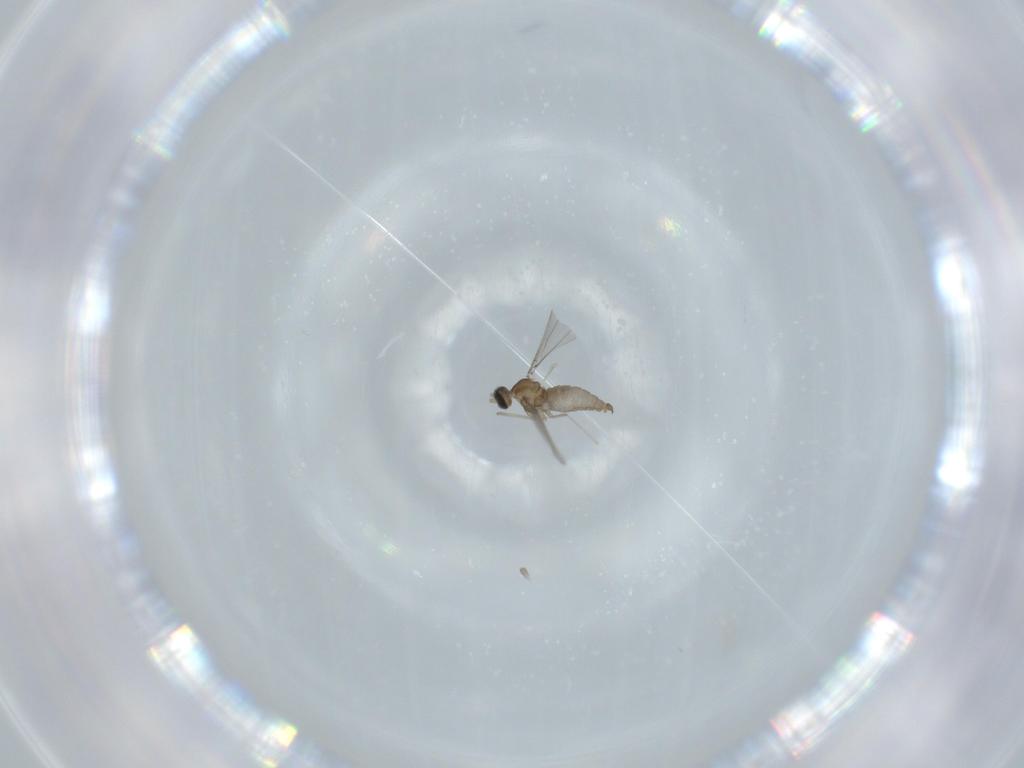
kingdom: Animalia
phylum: Arthropoda
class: Insecta
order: Diptera
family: Cecidomyiidae
